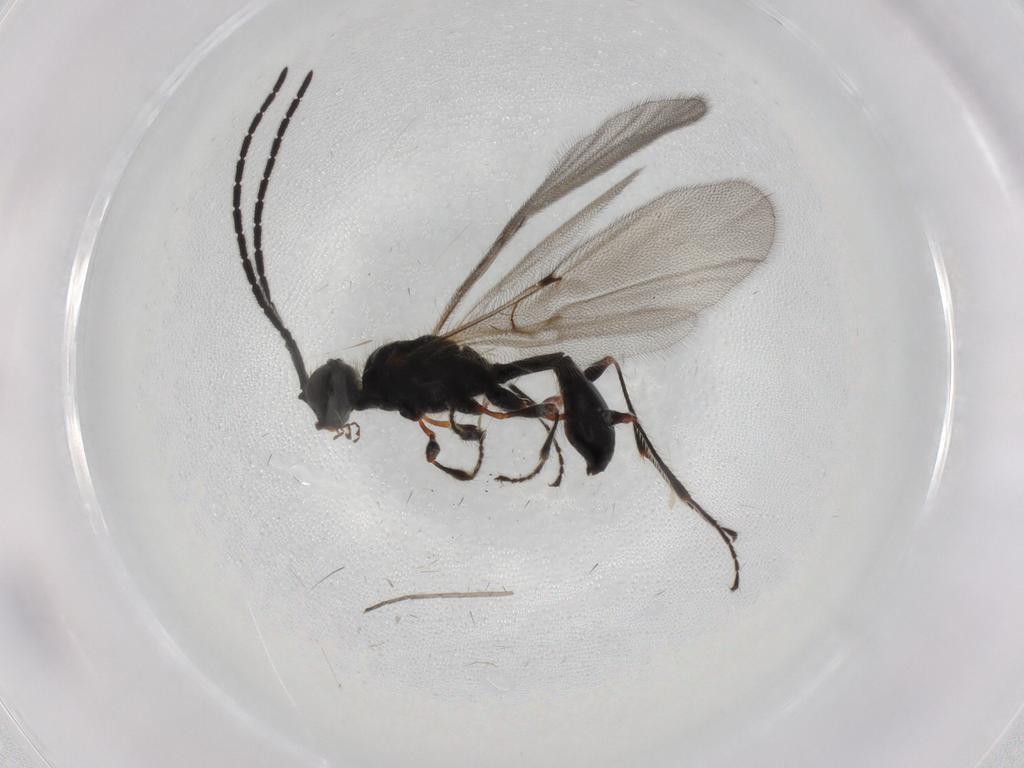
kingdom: Animalia
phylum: Arthropoda
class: Insecta
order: Hymenoptera
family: Diapriidae
